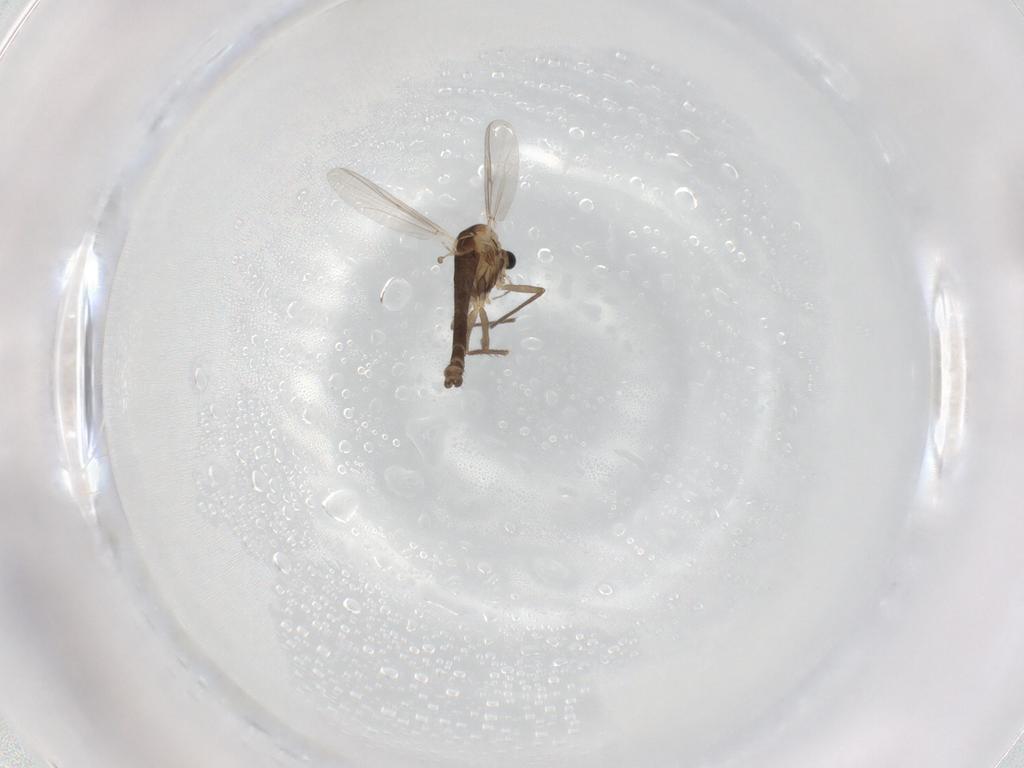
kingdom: Animalia
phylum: Arthropoda
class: Insecta
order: Diptera
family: Chironomidae
